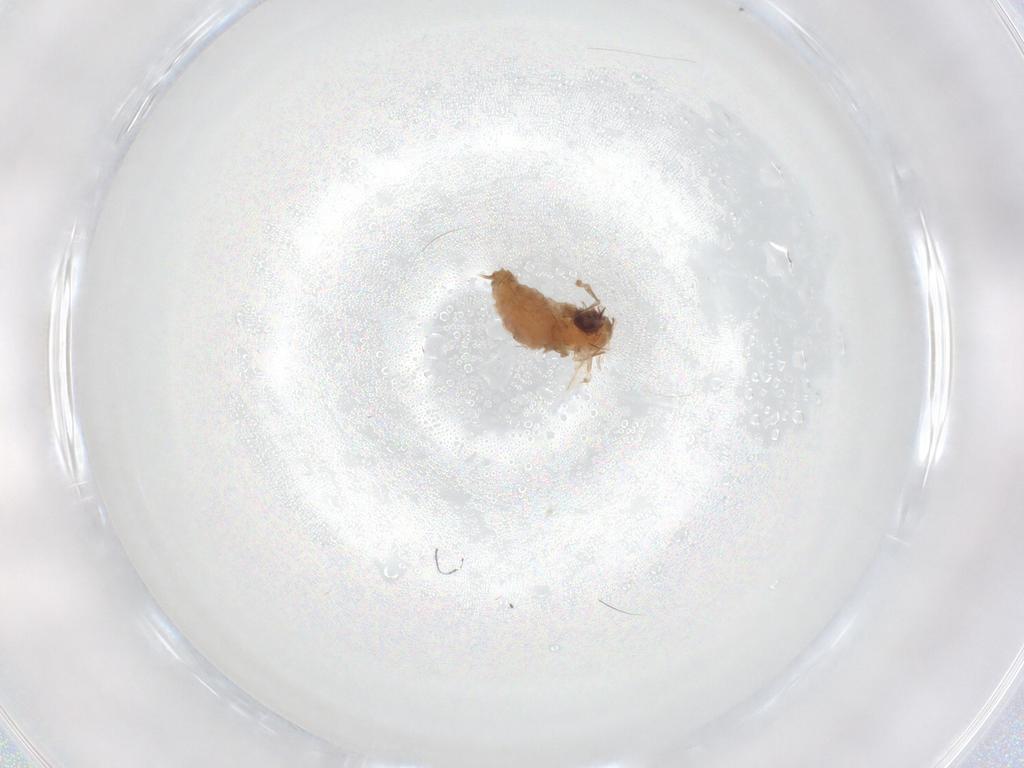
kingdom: Animalia
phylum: Arthropoda
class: Insecta
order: Diptera
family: Psychodidae
